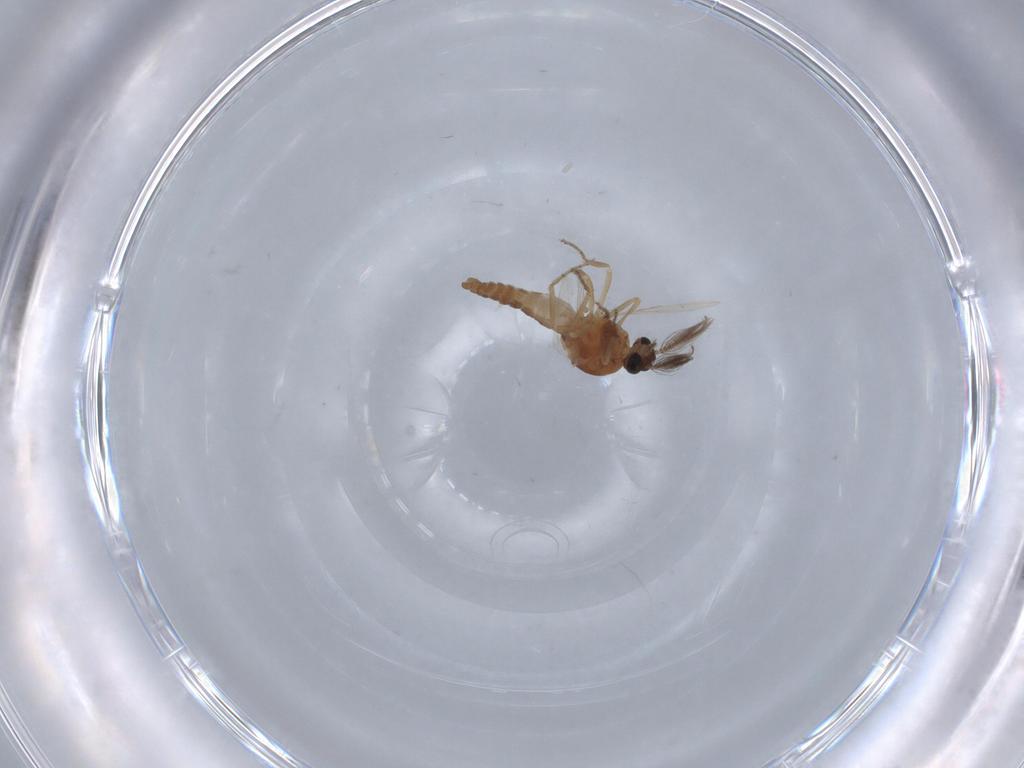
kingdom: Animalia
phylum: Arthropoda
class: Insecta
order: Diptera
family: Ceratopogonidae
